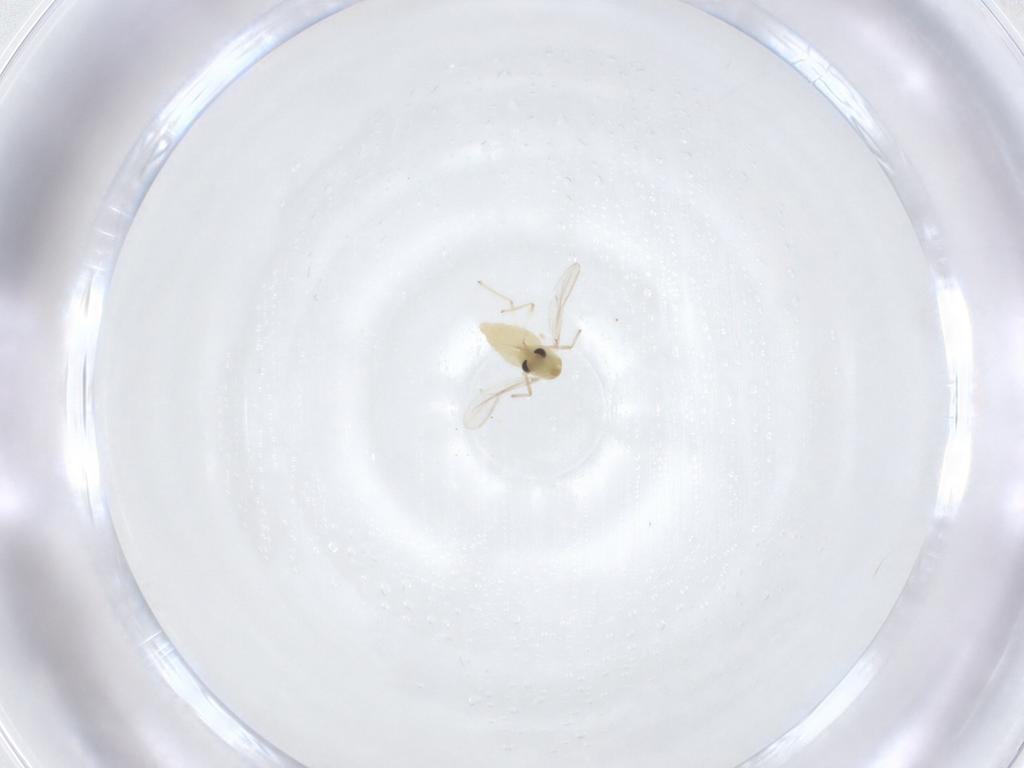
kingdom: Animalia
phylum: Arthropoda
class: Insecta
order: Diptera
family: Chironomidae
